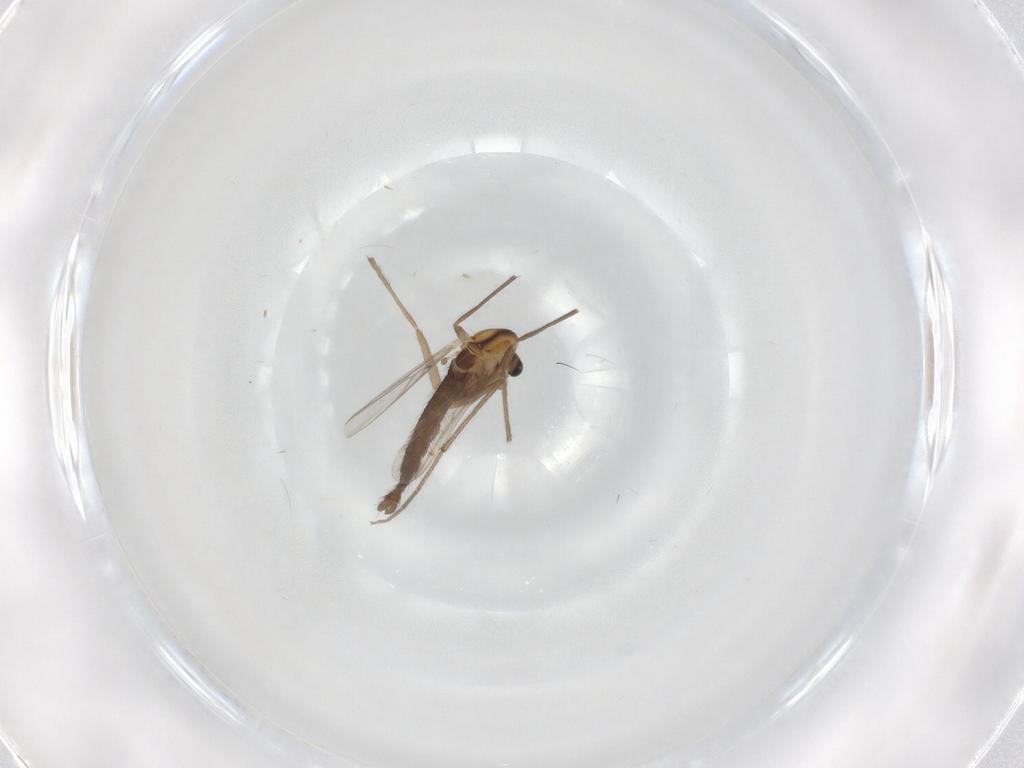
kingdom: Animalia
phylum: Arthropoda
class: Insecta
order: Diptera
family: Chironomidae
